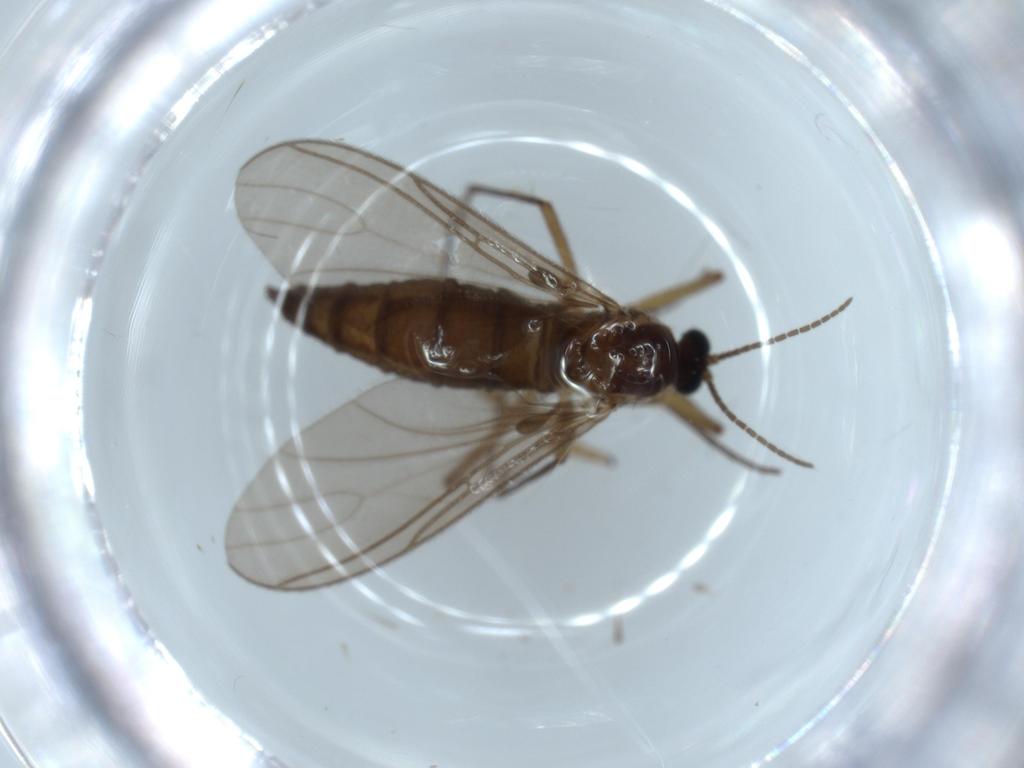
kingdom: Animalia
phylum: Arthropoda
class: Insecta
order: Diptera
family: Sciaridae
